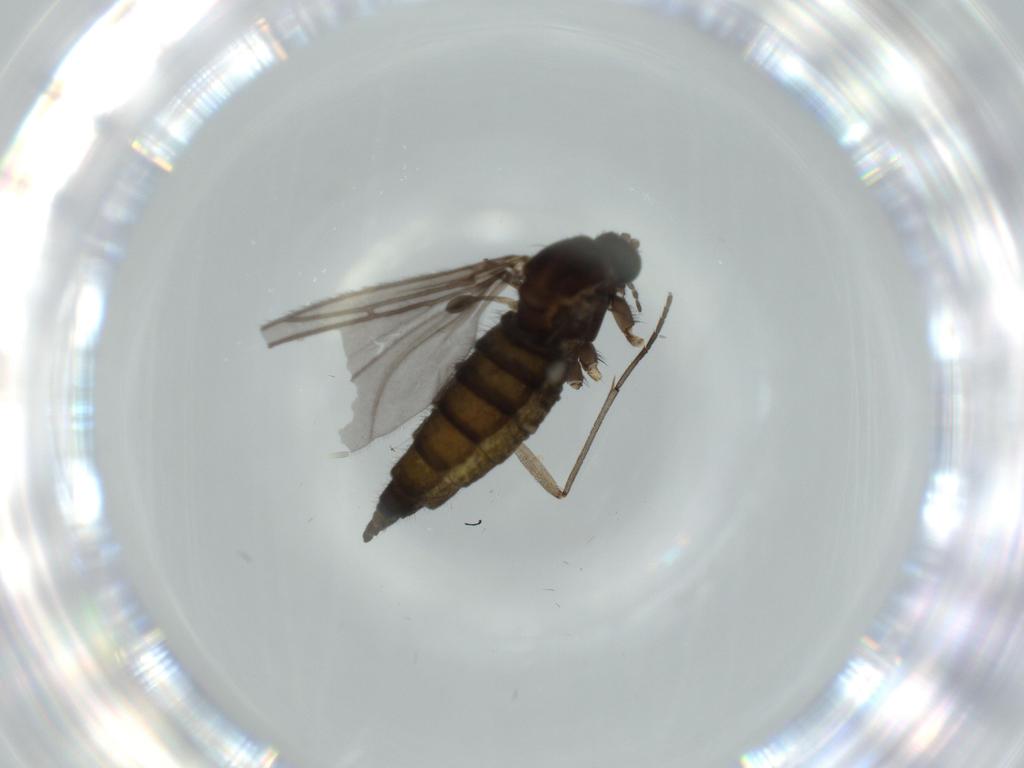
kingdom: Animalia
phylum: Arthropoda
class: Insecta
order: Diptera
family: Sciaridae
